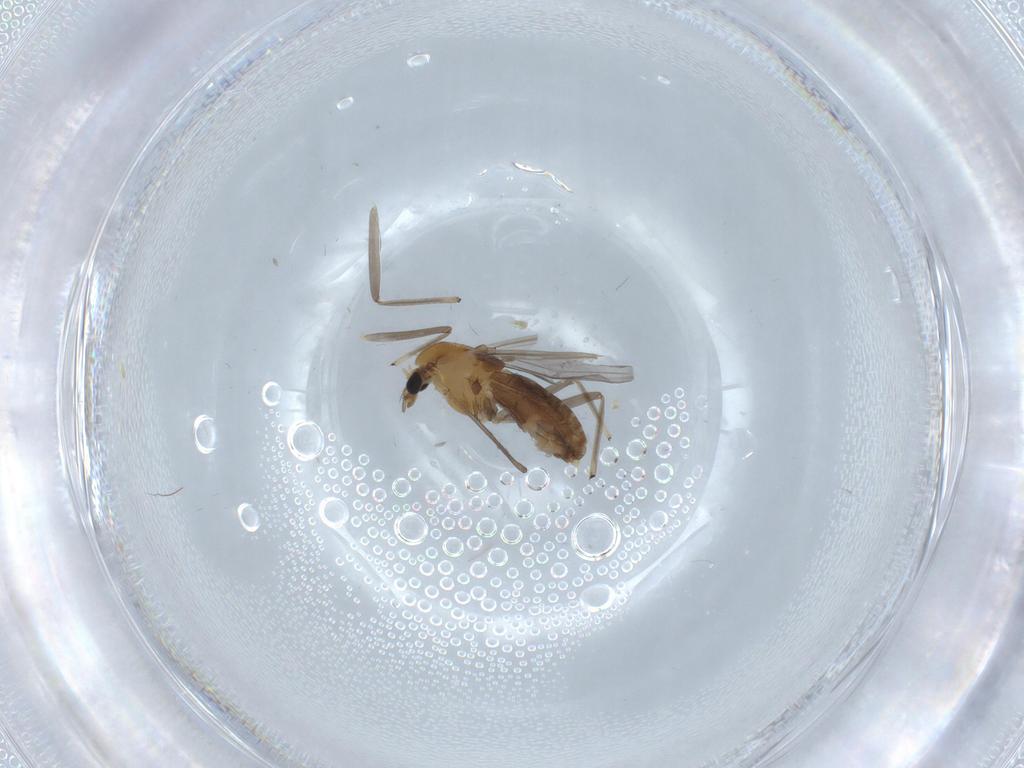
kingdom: Animalia
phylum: Arthropoda
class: Insecta
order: Diptera
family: Chironomidae
